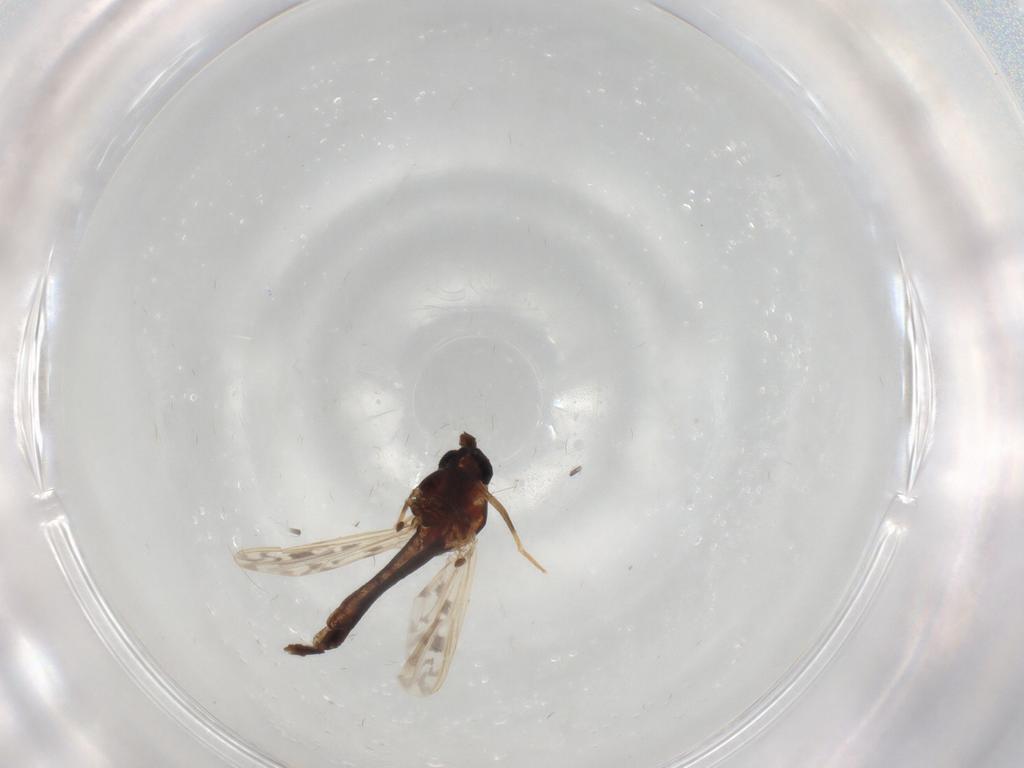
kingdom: Animalia
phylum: Arthropoda
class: Insecta
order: Diptera
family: Chironomidae
